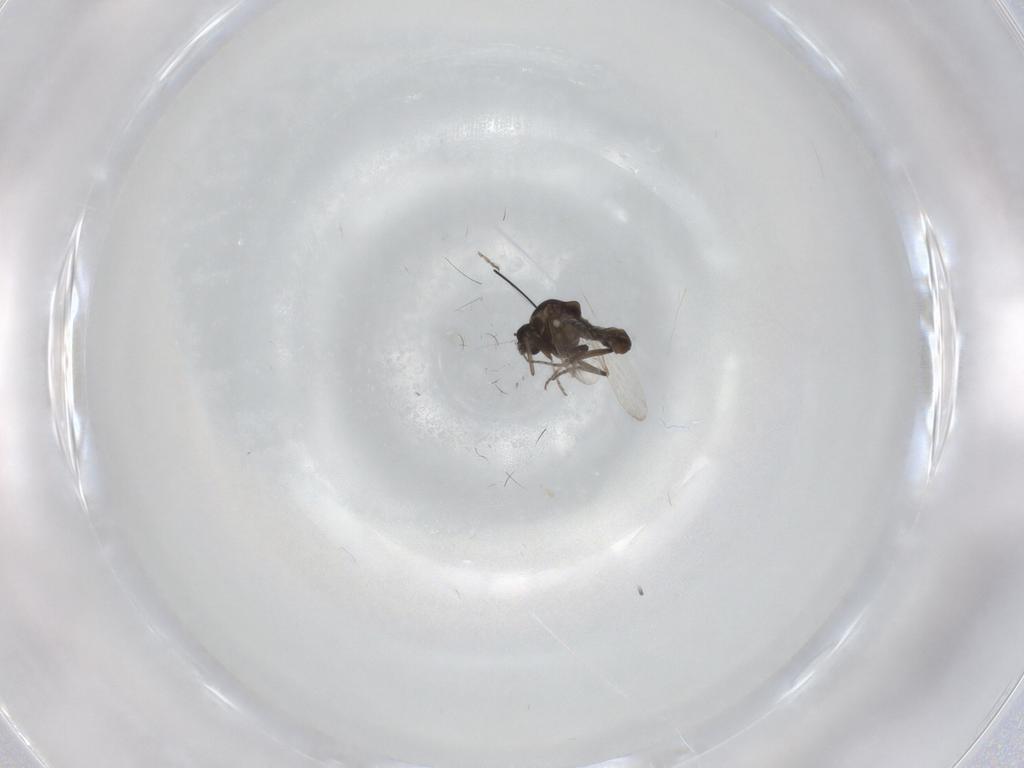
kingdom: Animalia
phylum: Arthropoda
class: Insecta
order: Diptera
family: Ceratopogonidae
